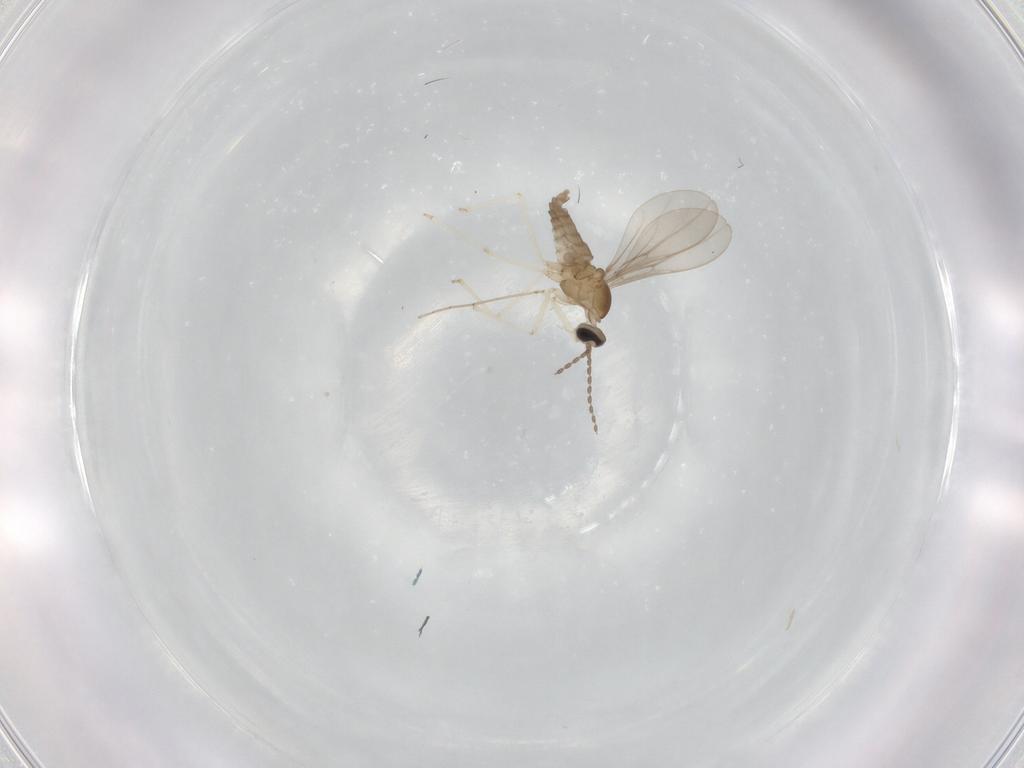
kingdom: Animalia
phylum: Arthropoda
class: Insecta
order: Diptera
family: Cecidomyiidae
